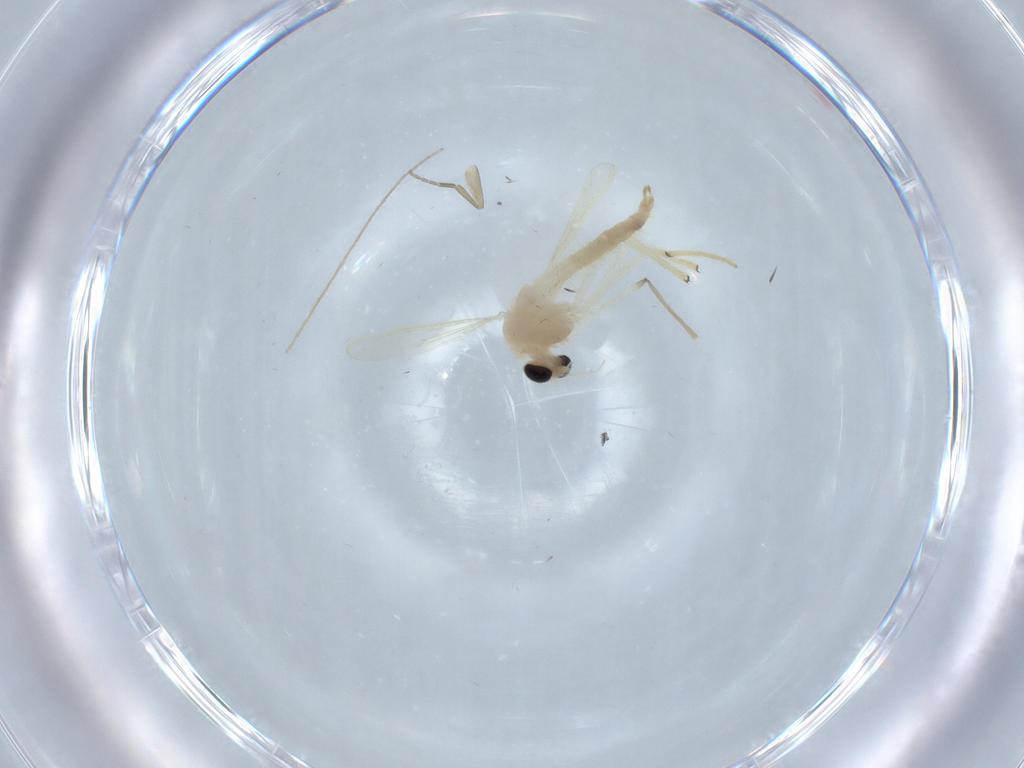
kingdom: Animalia
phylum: Arthropoda
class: Insecta
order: Diptera
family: Chironomidae
